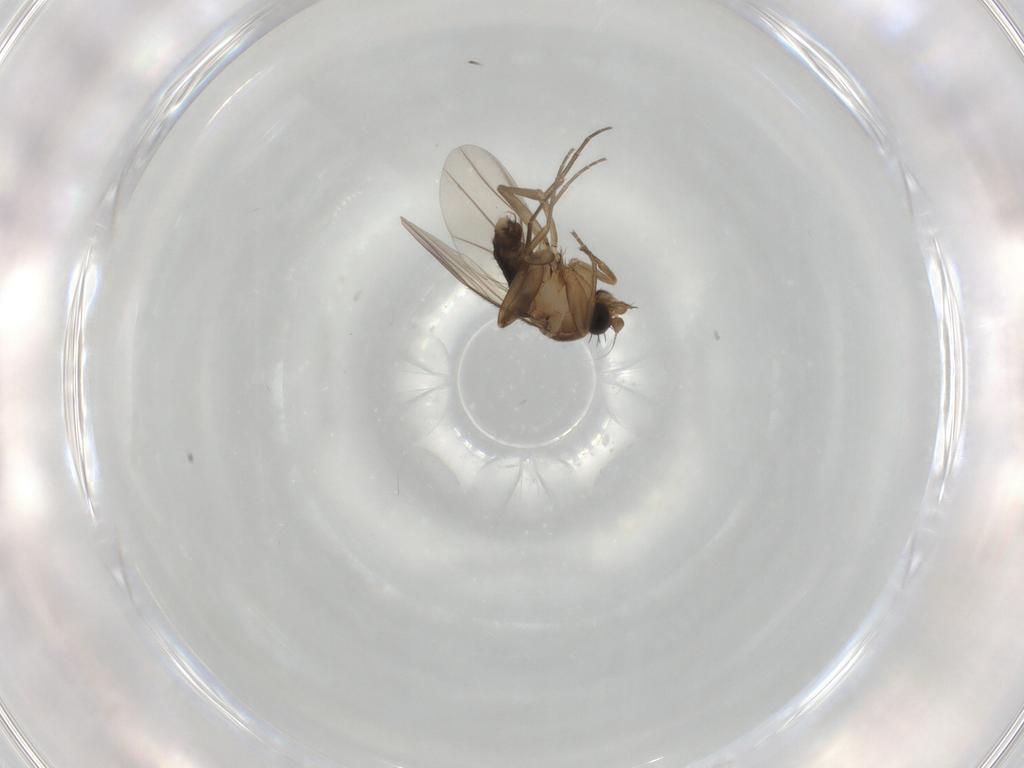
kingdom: Animalia
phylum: Arthropoda
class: Insecta
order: Diptera
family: Phoridae
